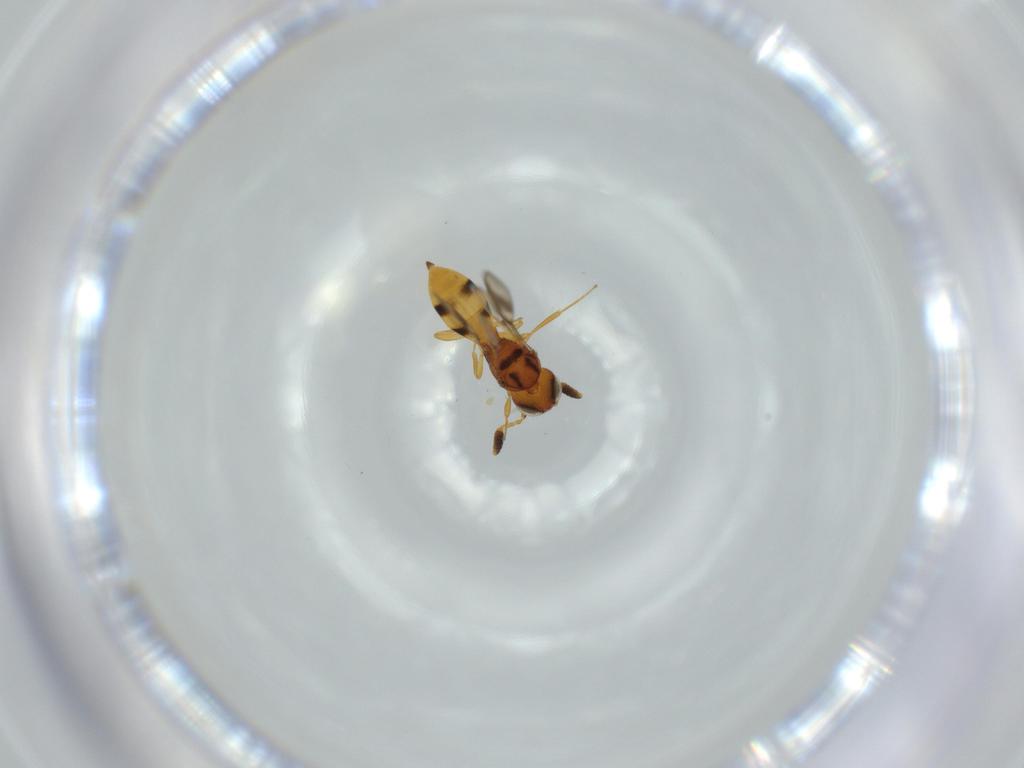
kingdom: Animalia
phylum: Arthropoda
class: Insecta
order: Hymenoptera
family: Scelionidae
